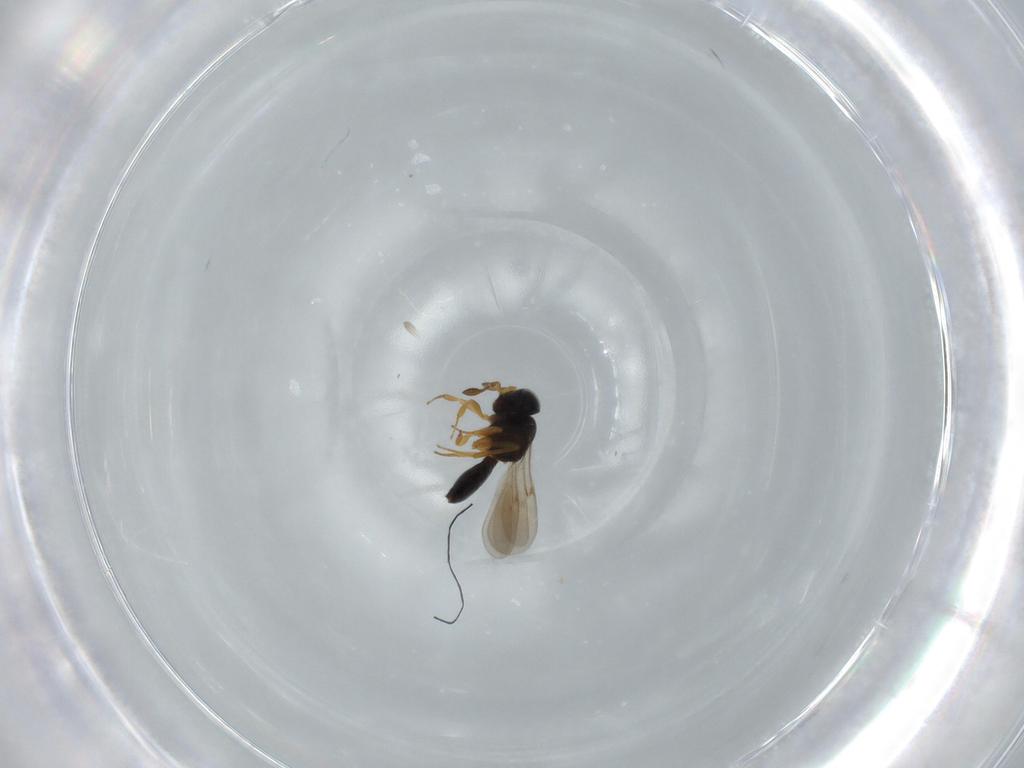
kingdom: Animalia
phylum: Arthropoda
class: Insecta
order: Hymenoptera
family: Scelionidae
